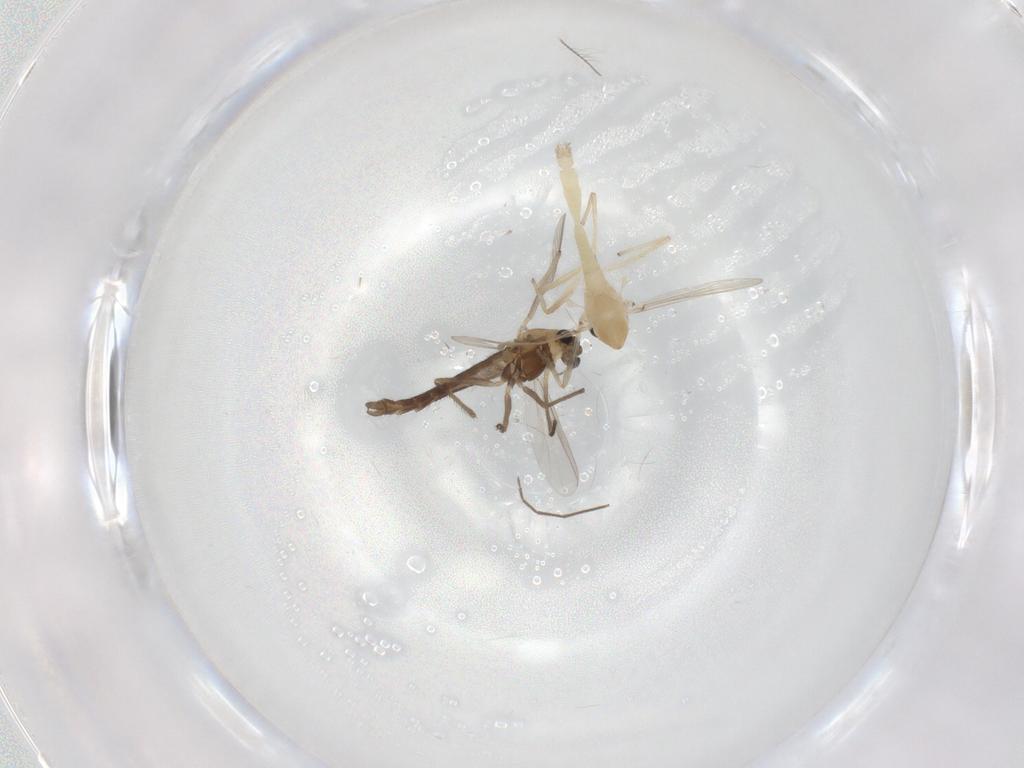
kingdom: Animalia
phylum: Arthropoda
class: Insecta
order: Diptera
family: Chironomidae
